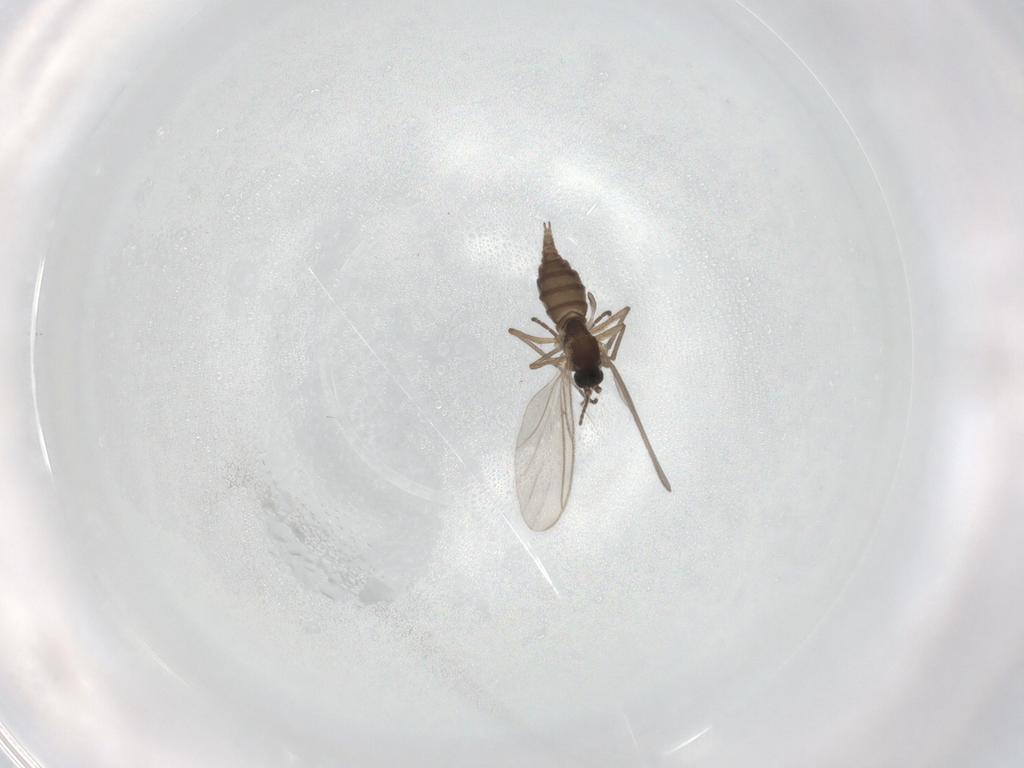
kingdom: Animalia
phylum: Arthropoda
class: Insecta
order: Diptera
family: Ceratopogonidae
